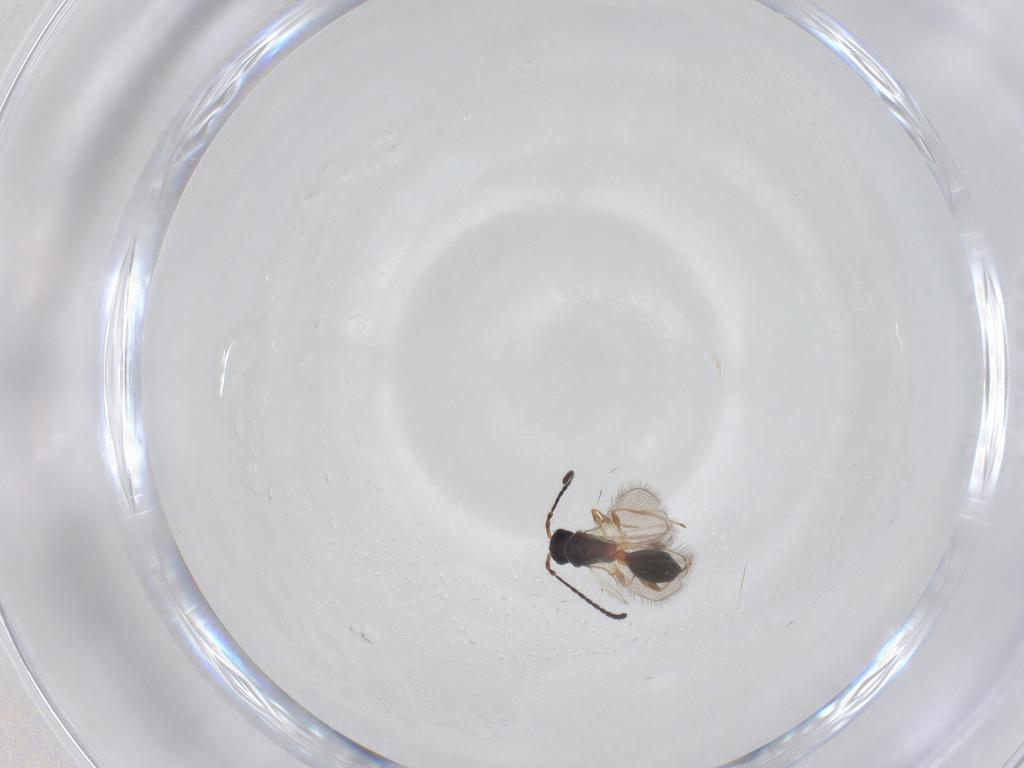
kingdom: Animalia
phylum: Arthropoda
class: Insecta
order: Hymenoptera
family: Diapriidae
